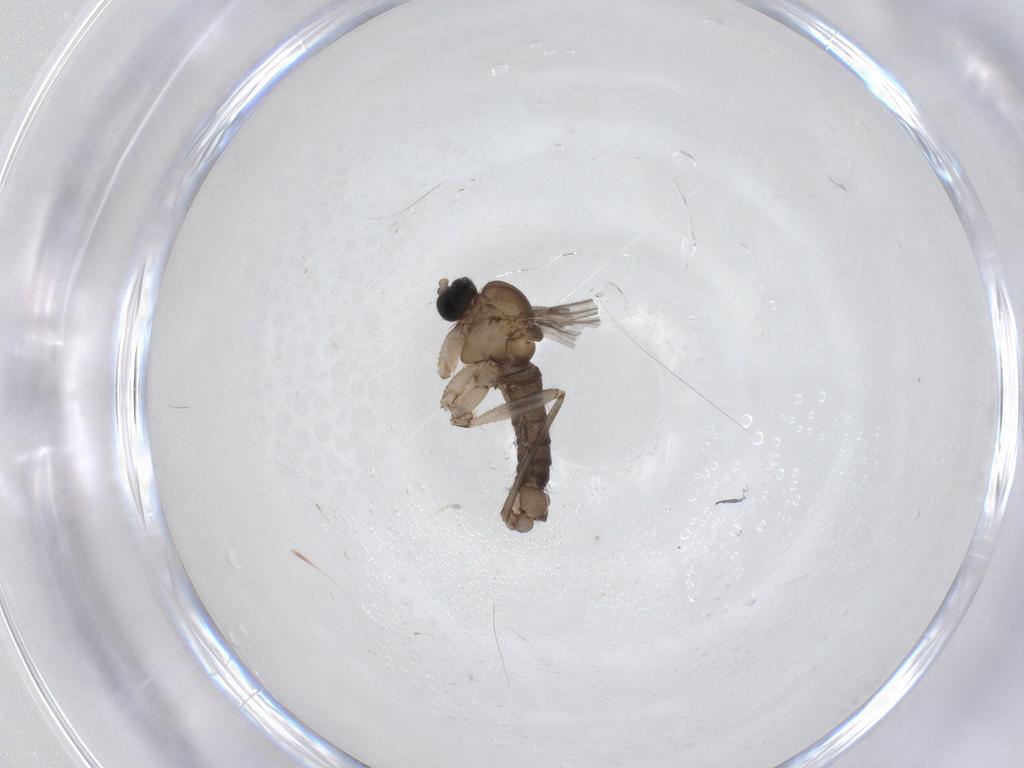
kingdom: Animalia
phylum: Arthropoda
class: Insecta
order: Diptera
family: Sciaridae
